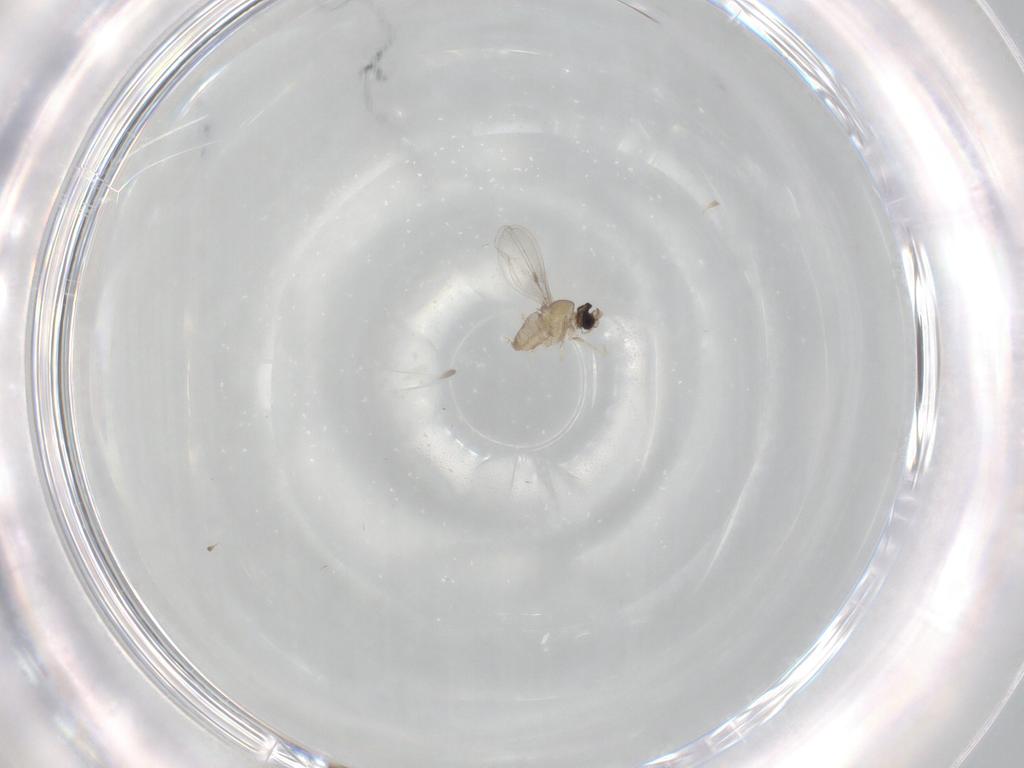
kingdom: Animalia
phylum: Arthropoda
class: Insecta
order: Diptera
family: Cecidomyiidae
